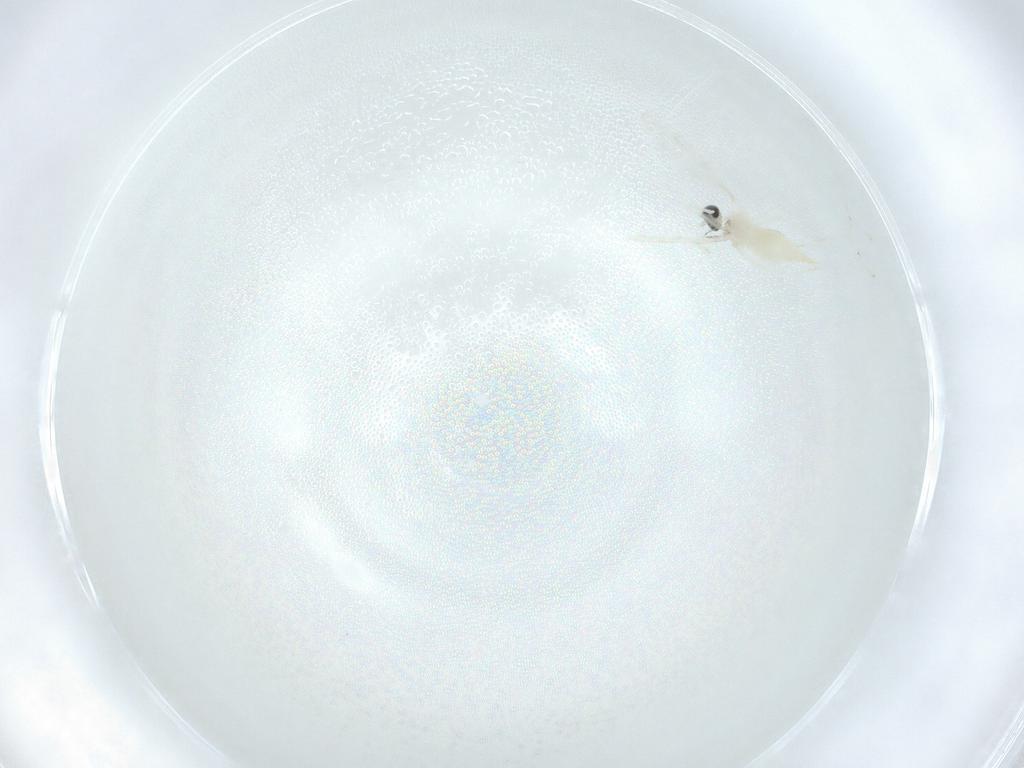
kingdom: Animalia
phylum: Arthropoda
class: Insecta
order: Diptera
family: Cecidomyiidae
